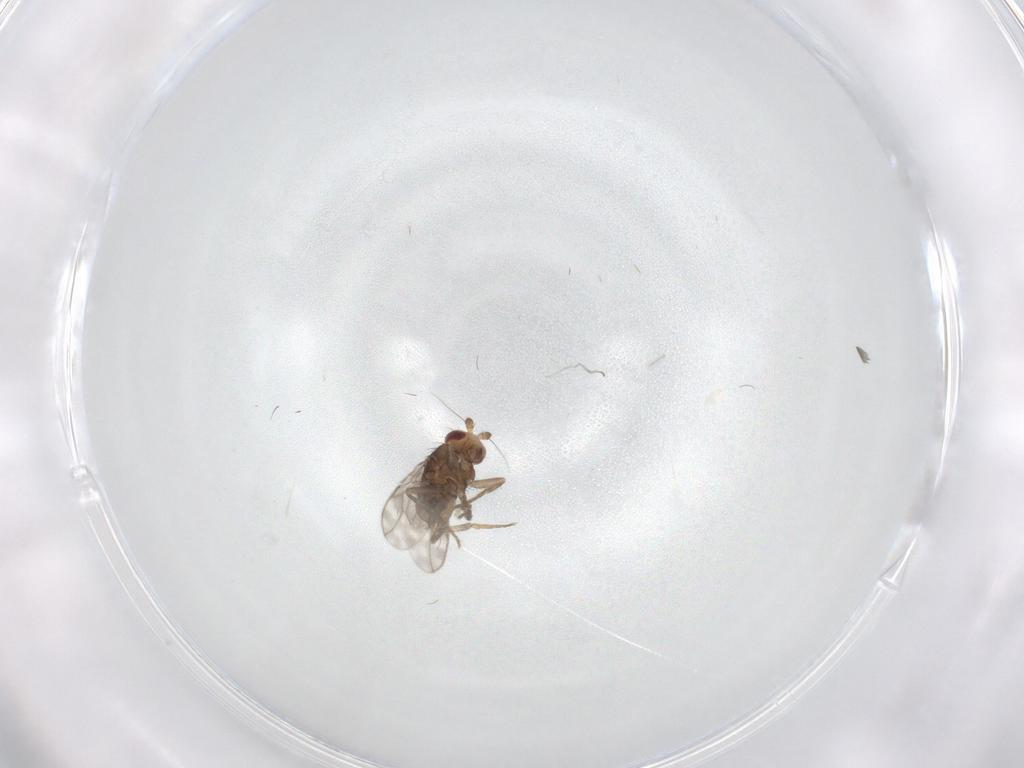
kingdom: Animalia
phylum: Arthropoda
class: Insecta
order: Diptera
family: Sphaeroceridae
